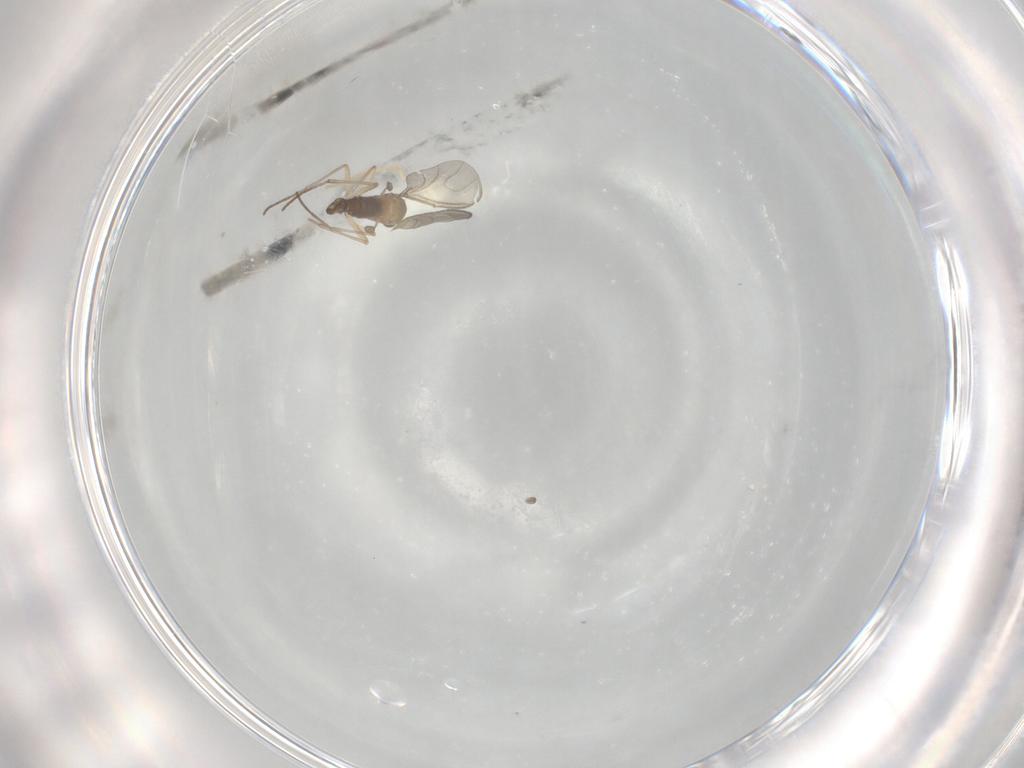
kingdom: Animalia
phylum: Arthropoda
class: Insecta
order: Diptera
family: Sciaridae
